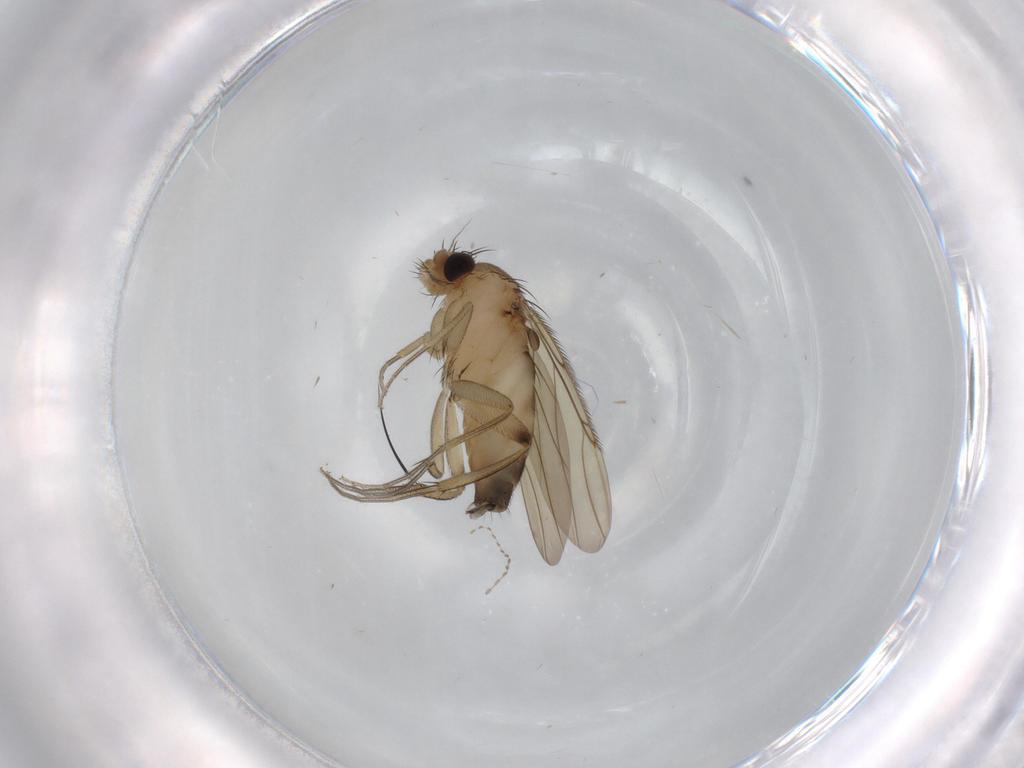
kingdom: Animalia
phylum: Arthropoda
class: Insecta
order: Diptera
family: Phoridae
